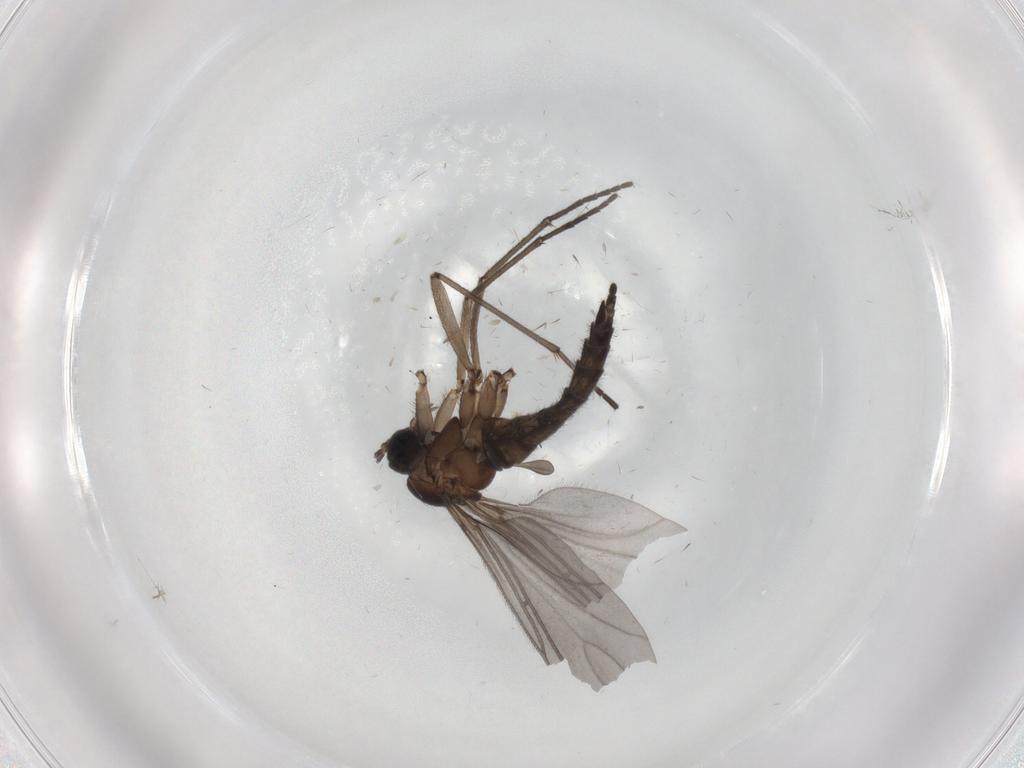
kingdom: Animalia
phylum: Arthropoda
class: Insecta
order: Diptera
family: Sciaridae
